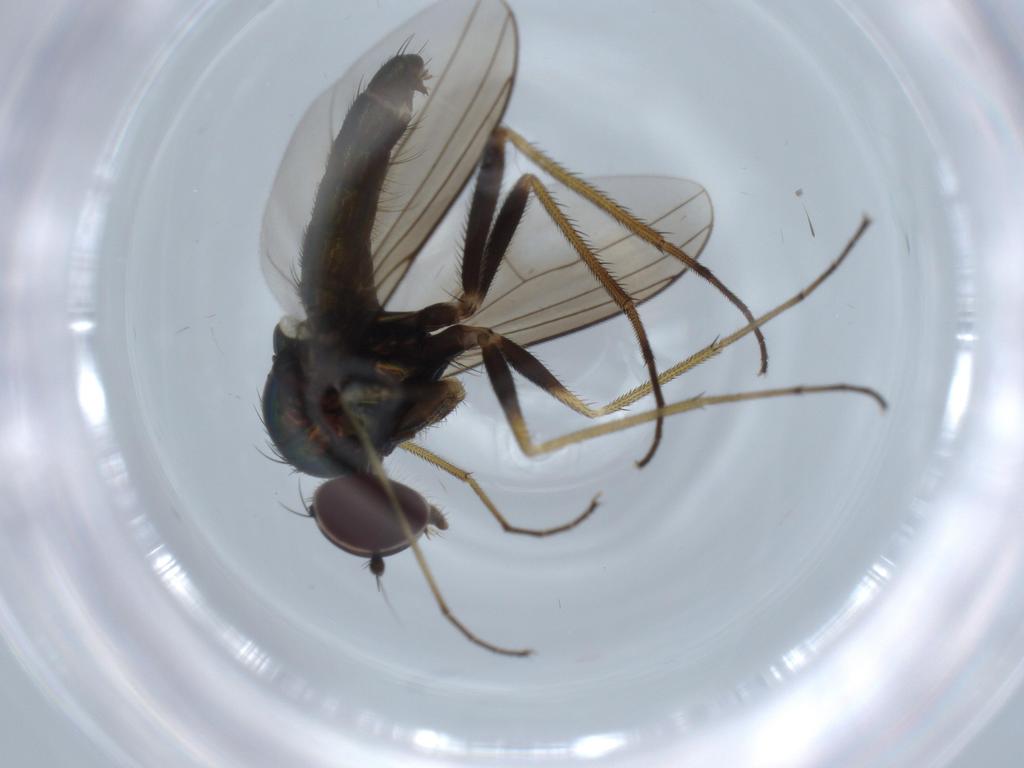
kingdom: Animalia
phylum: Arthropoda
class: Insecta
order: Diptera
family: Dolichopodidae
